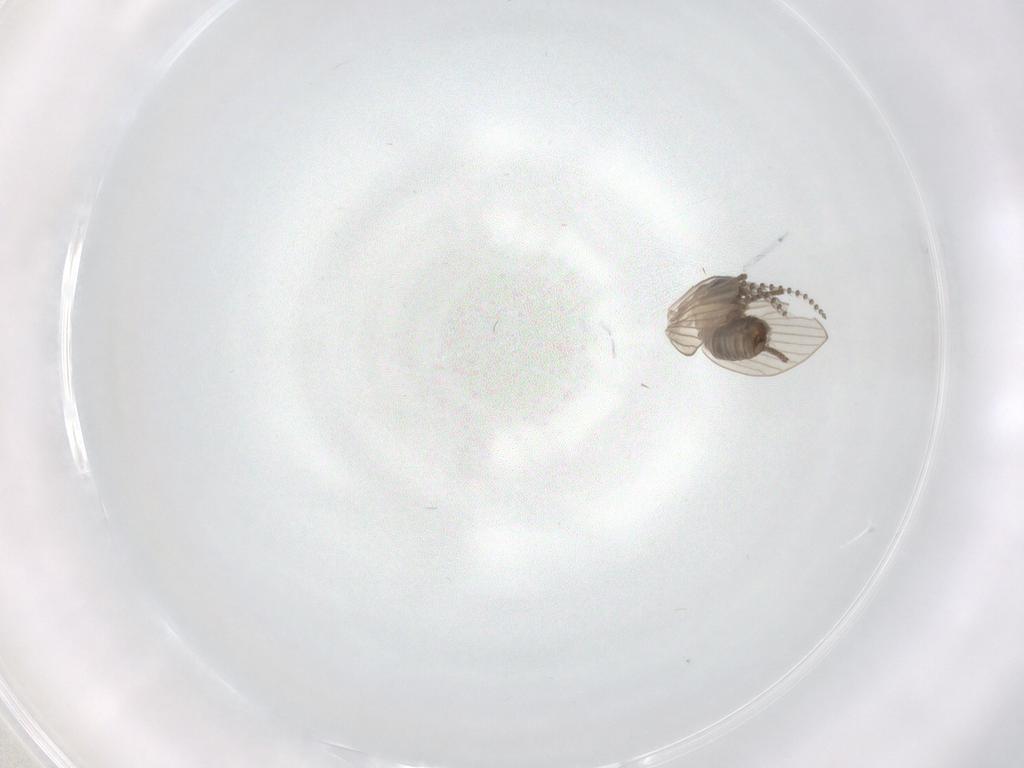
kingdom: Animalia
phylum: Arthropoda
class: Insecta
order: Diptera
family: Psychodidae
